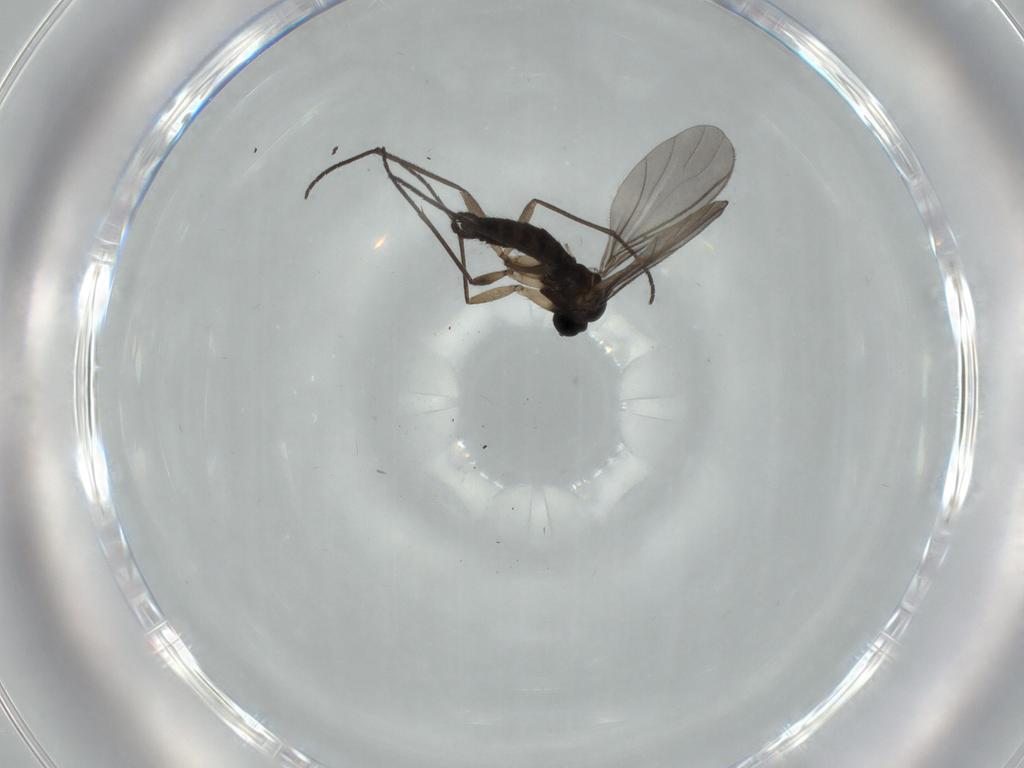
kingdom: Animalia
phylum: Arthropoda
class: Insecta
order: Diptera
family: Sciaridae
